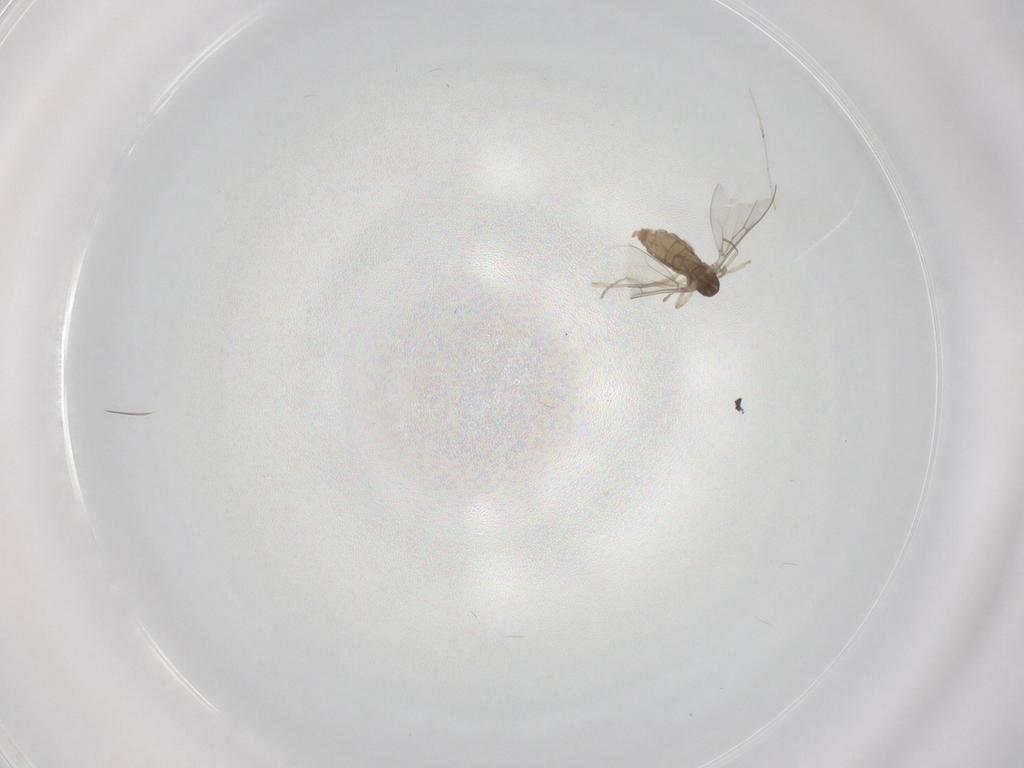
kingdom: Animalia
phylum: Arthropoda
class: Insecta
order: Diptera
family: Cecidomyiidae
